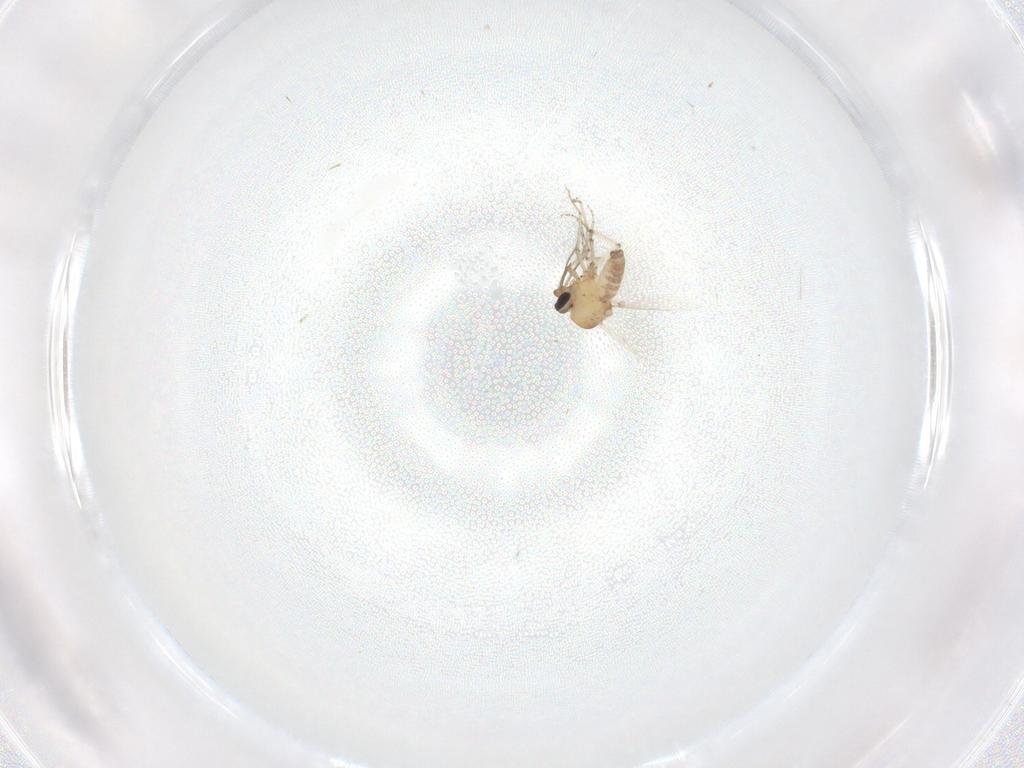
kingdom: Animalia
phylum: Arthropoda
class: Insecta
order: Diptera
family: Ceratopogonidae
